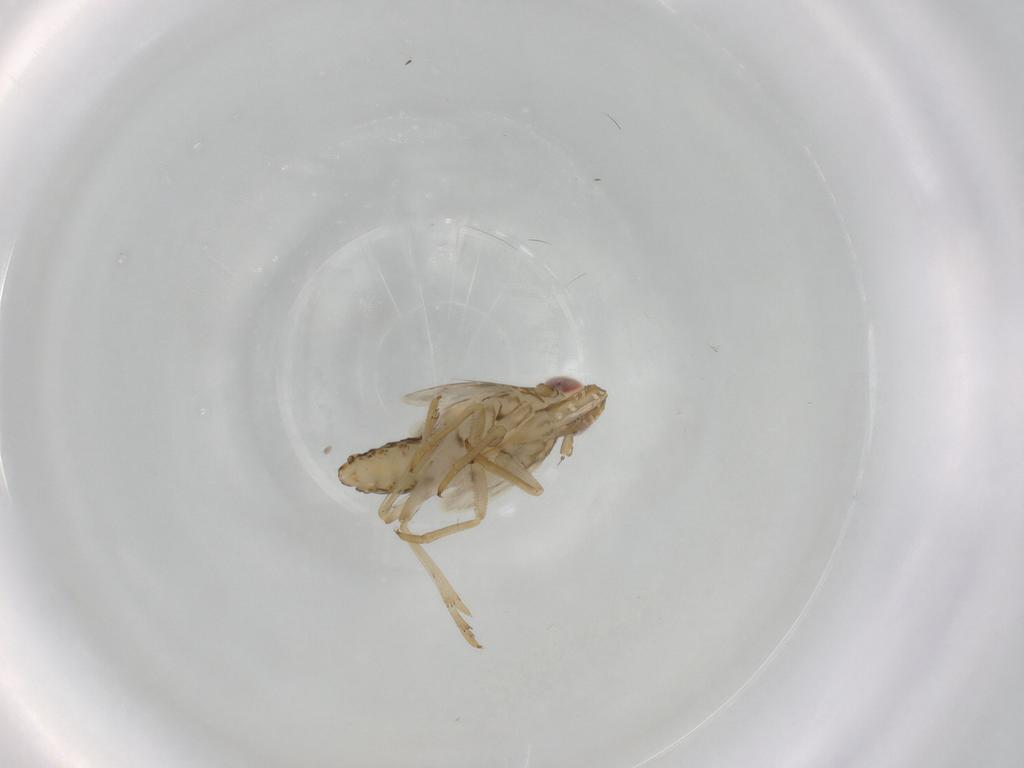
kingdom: Animalia
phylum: Arthropoda
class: Insecta
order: Hemiptera
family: Delphacidae
